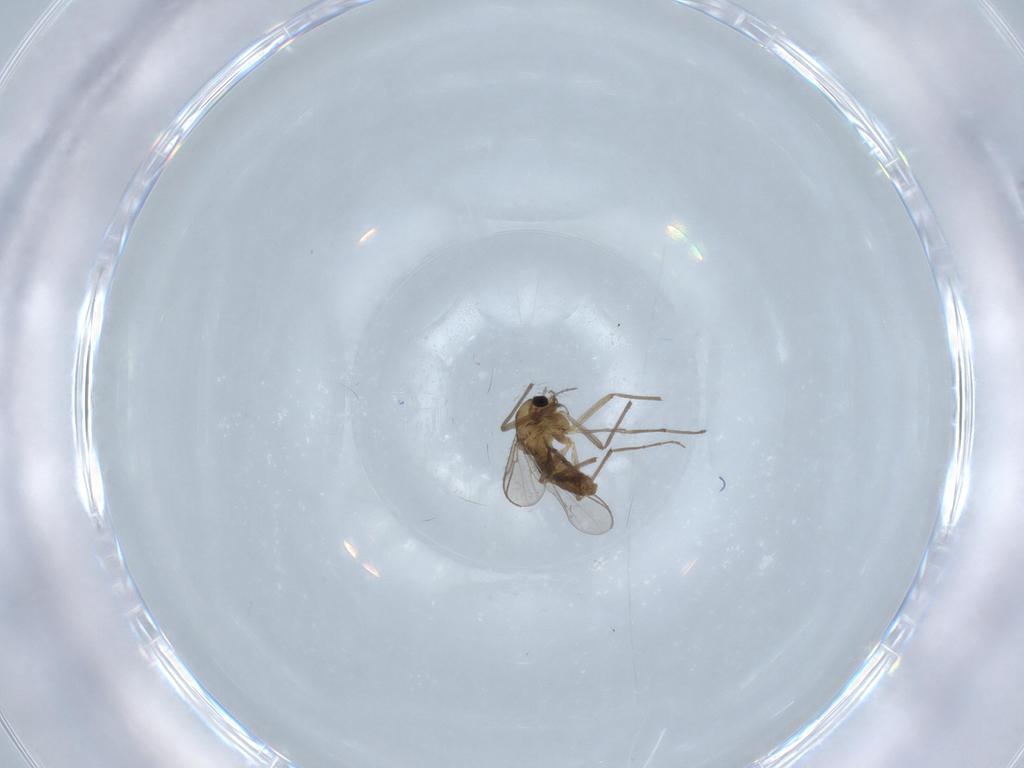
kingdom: Animalia
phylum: Arthropoda
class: Insecta
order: Diptera
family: Chironomidae
